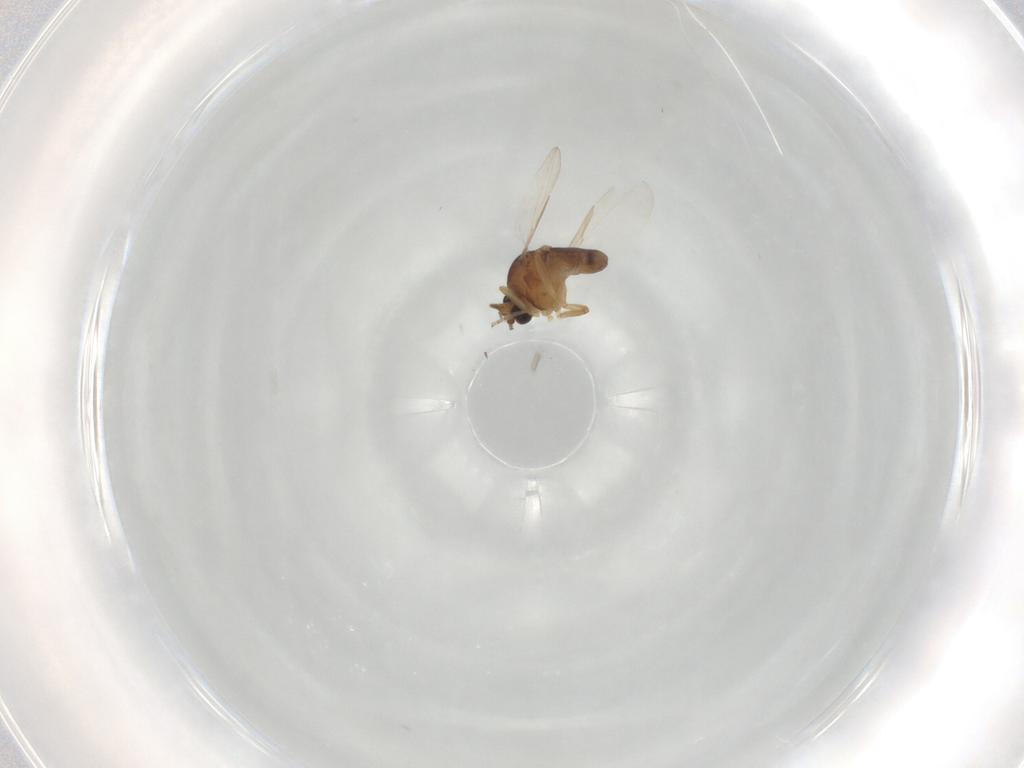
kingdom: Animalia
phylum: Arthropoda
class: Insecta
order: Diptera
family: Ceratopogonidae
